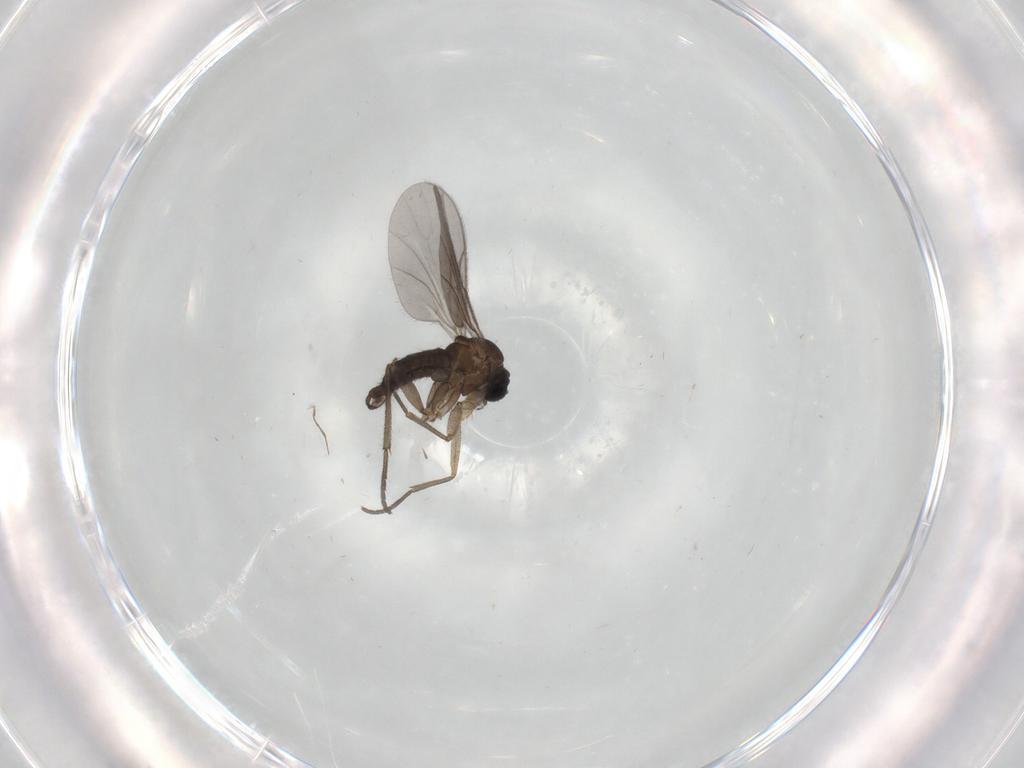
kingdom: Animalia
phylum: Arthropoda
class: Insecta
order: Diptera
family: Sciaridae
